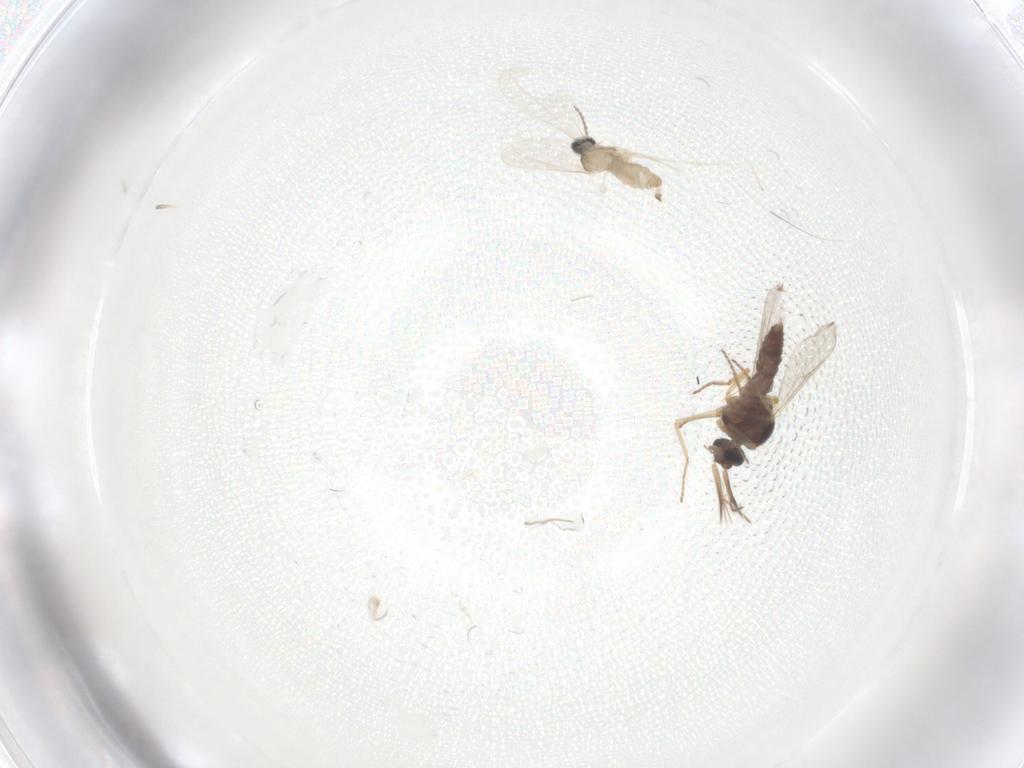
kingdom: Animalia
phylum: Arthropoda
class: Insecta
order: Diptera
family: Ceratopogonidae
